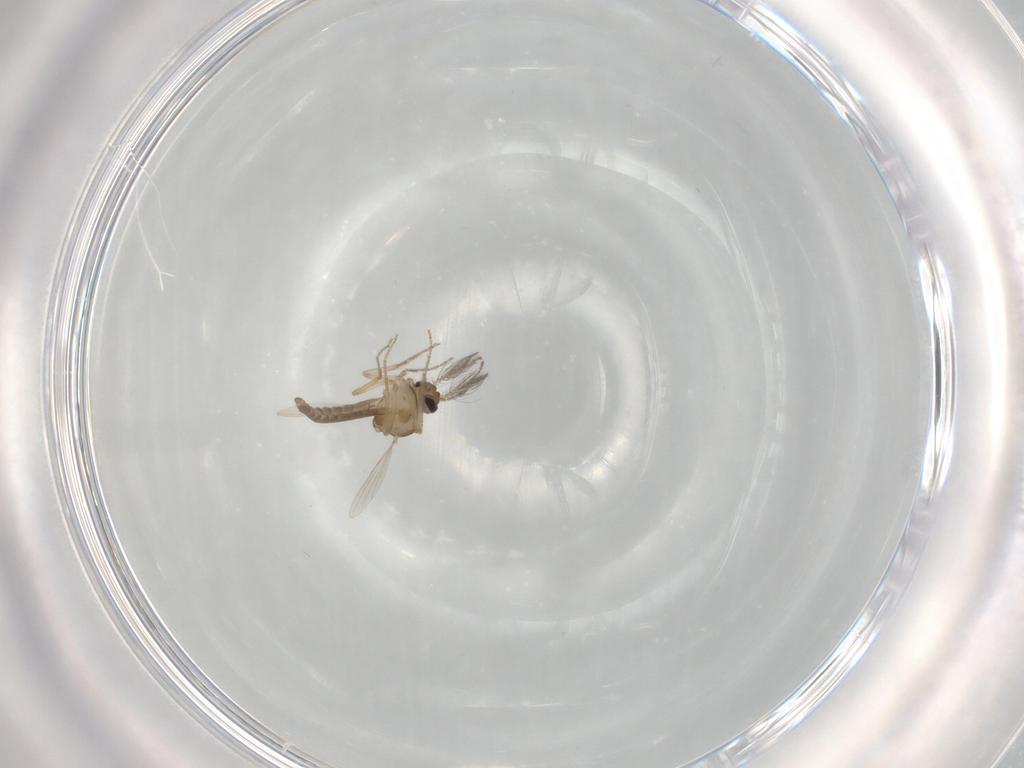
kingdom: Animalia
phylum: Arthropoda
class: Insecta
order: Diptera
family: Ceratopogonidae
